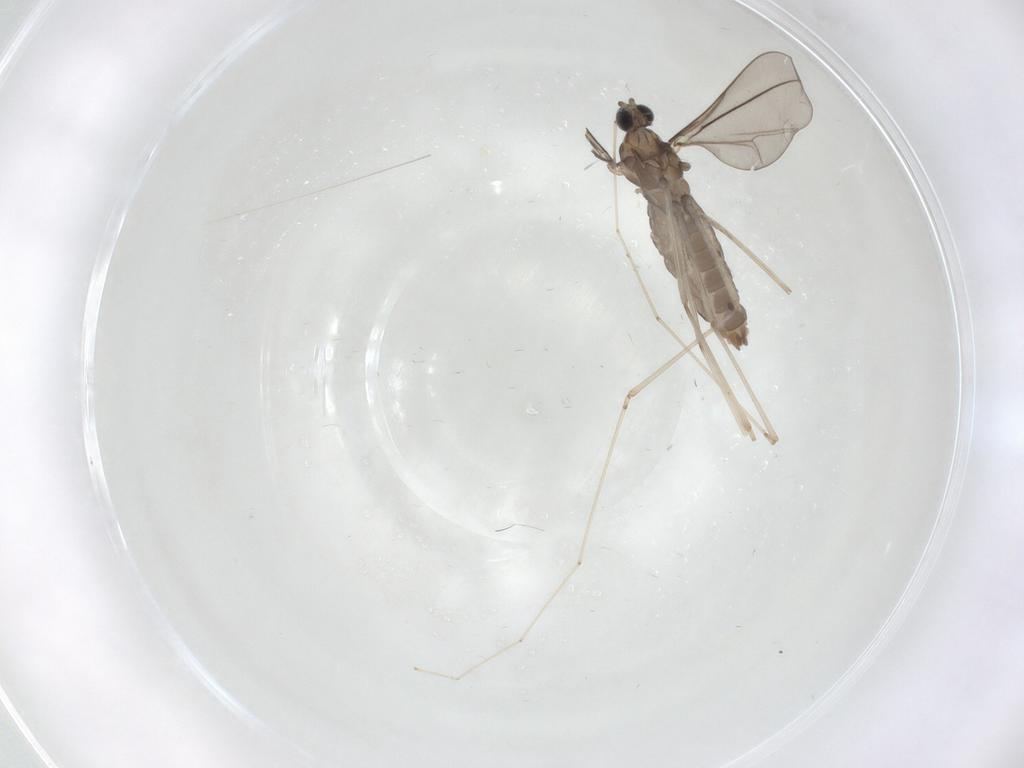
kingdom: Animalia
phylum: Arthropoda
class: Insecta
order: Diptera
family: Cecidomyiidae
